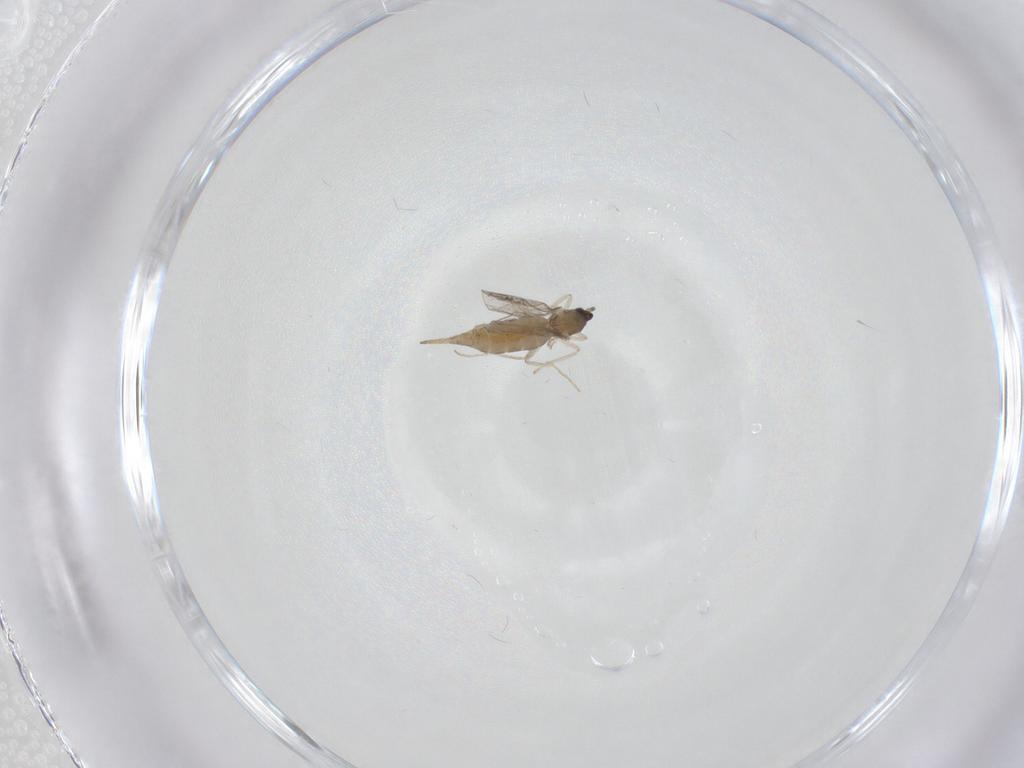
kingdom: Animalia
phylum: Arthropoda
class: Insecta
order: Diptera
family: Cecidomyiidae
